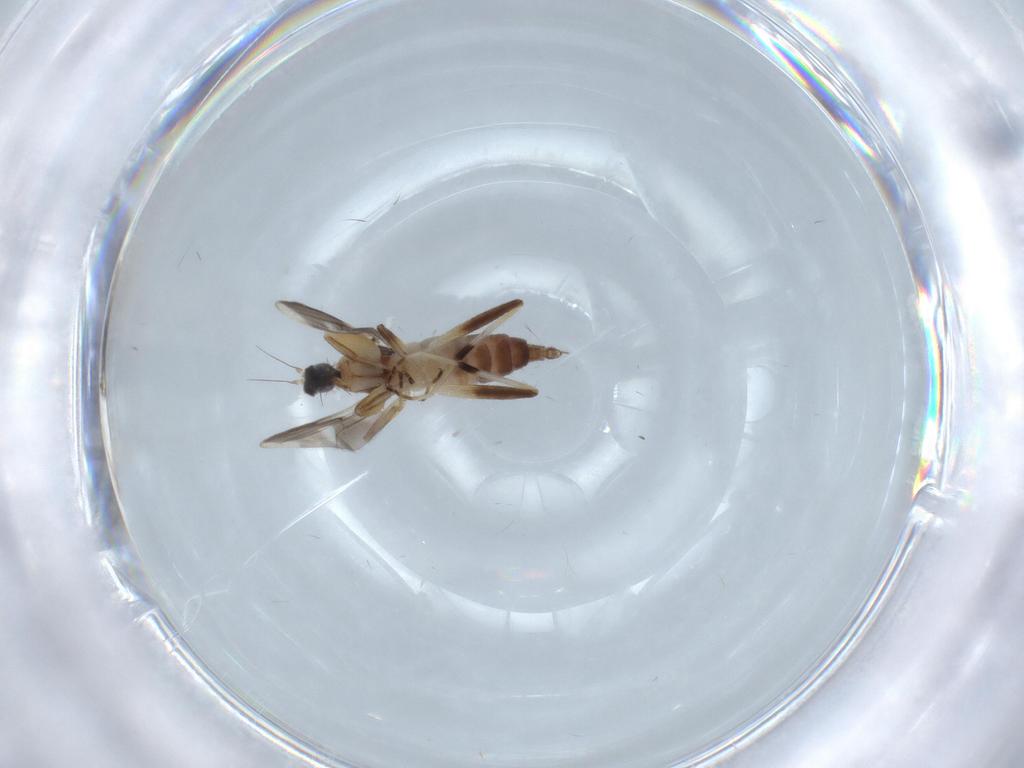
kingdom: Animalia
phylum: Arthropoda
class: Insecta
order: Diptera
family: Cecidomyiidae
